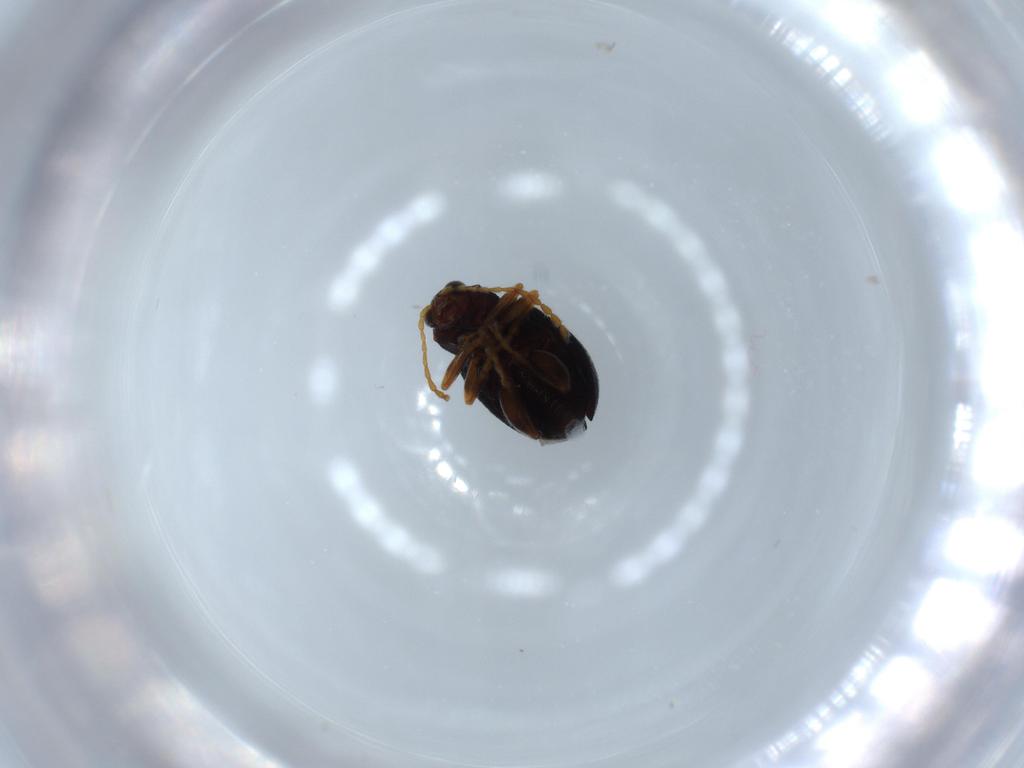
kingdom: Animalia
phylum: Arthropoda
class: Insecta
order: Coleoptera
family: Chrysomelidae
